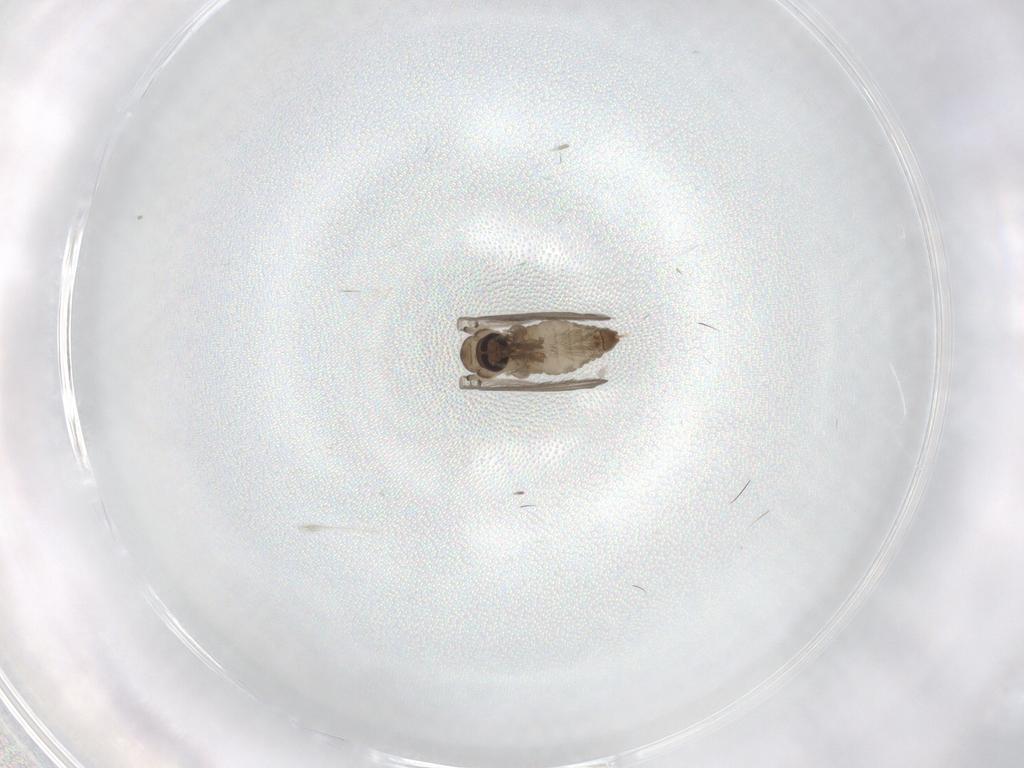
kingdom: Animalia
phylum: Arthropoda
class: Insecta
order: Diptera
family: Psychodidae
